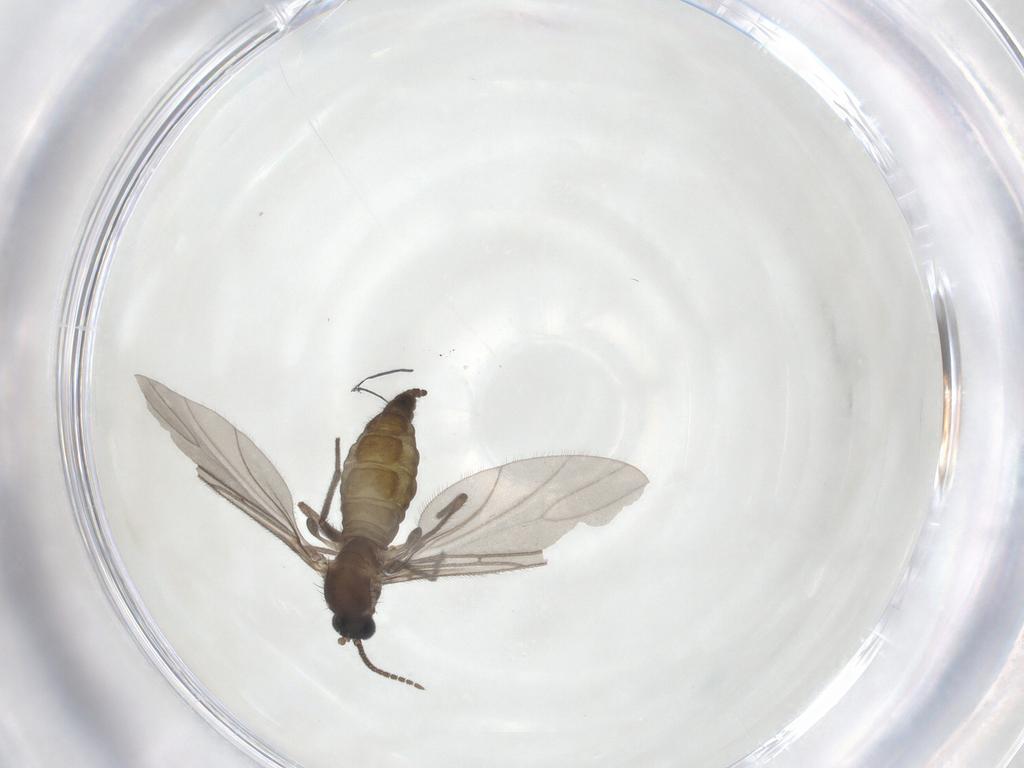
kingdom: Animalia
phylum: Arthropoda
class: Insecta
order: Diptera
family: Sciaridae
